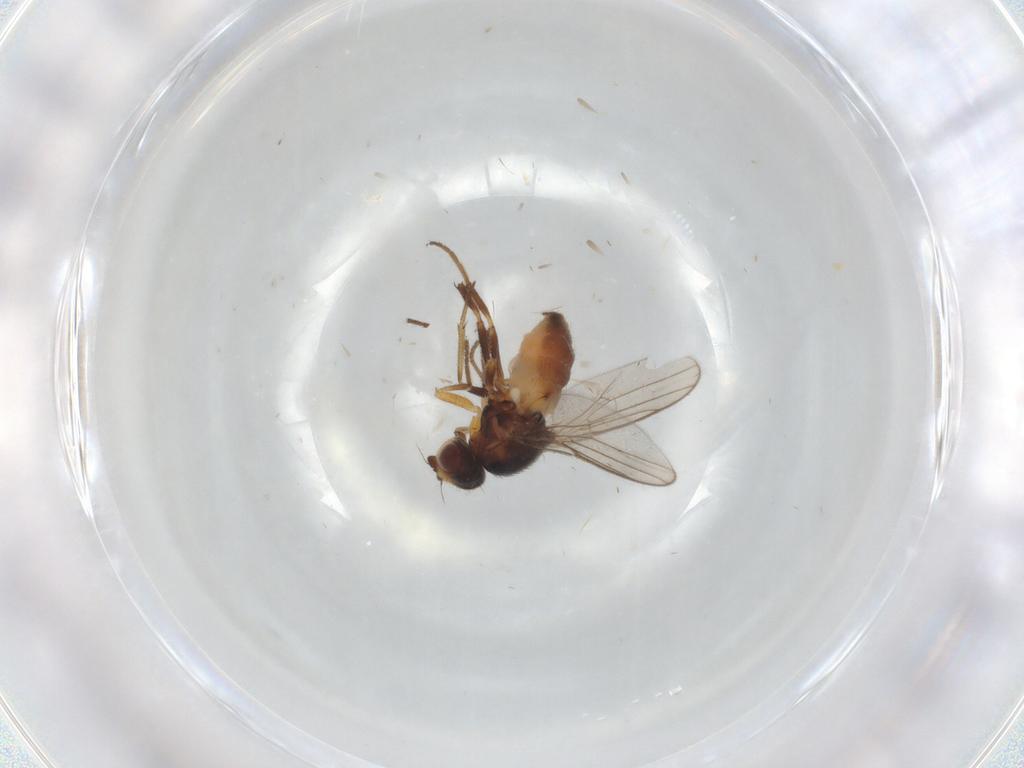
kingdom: Animalia
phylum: Arthropoda
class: Insecta
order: Diptera
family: Chloropidae
